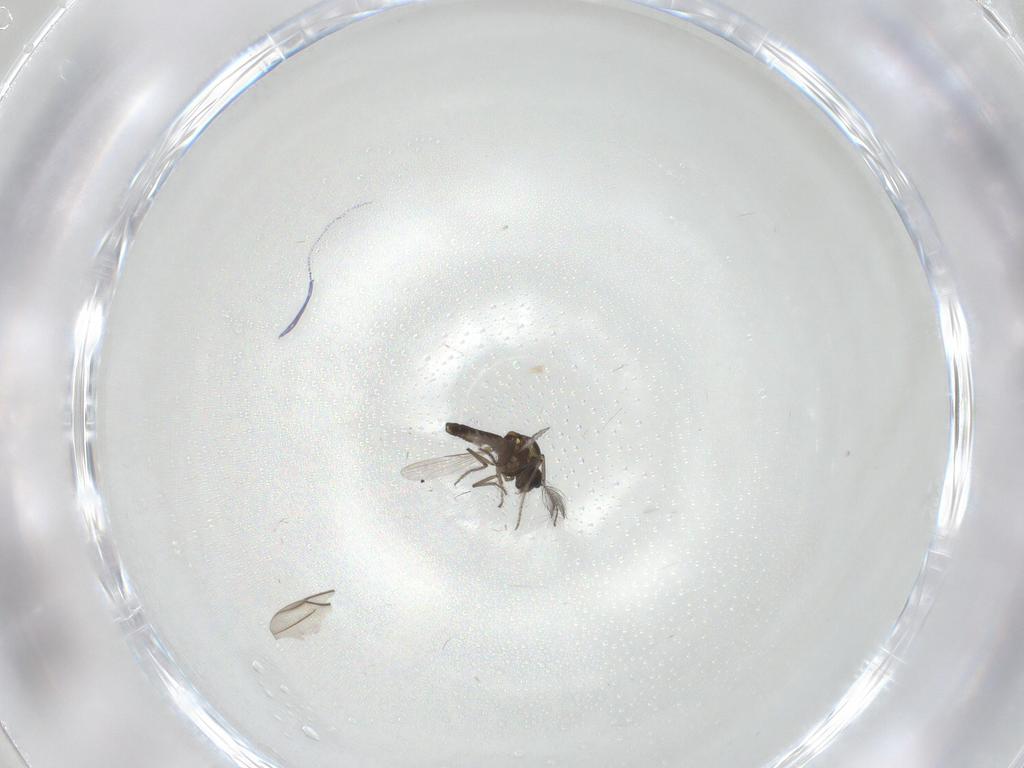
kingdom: Animalia
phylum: Arthropoda
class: Insecta
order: Diptera
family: Ceratopogonidae
